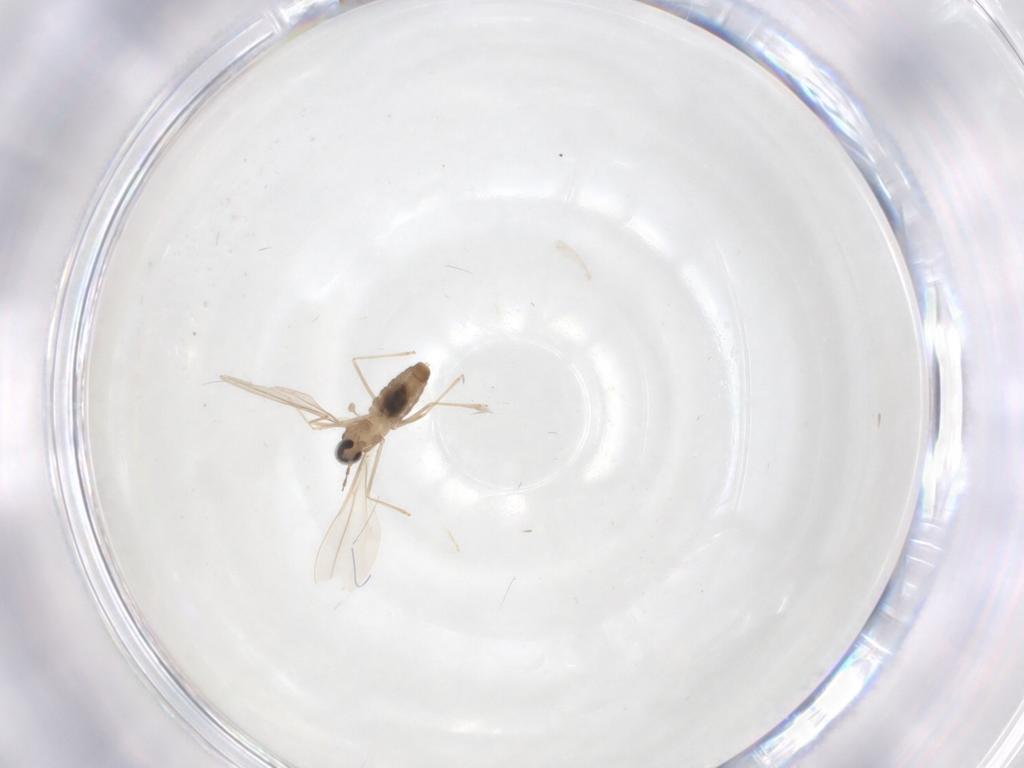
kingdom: Animalia
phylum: Arthropoda
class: Insecta
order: Diptera
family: Cecidomyiidae
